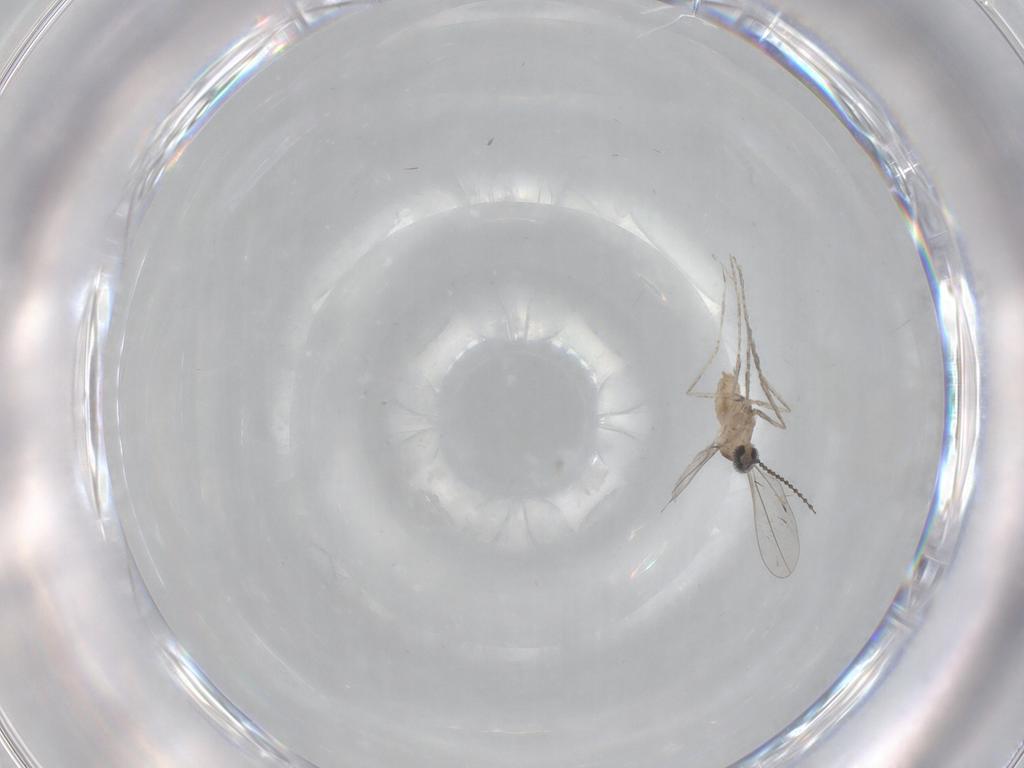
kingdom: Animalia
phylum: Arthropoda
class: Insecta
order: Diptera
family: Cecidomyiidae
